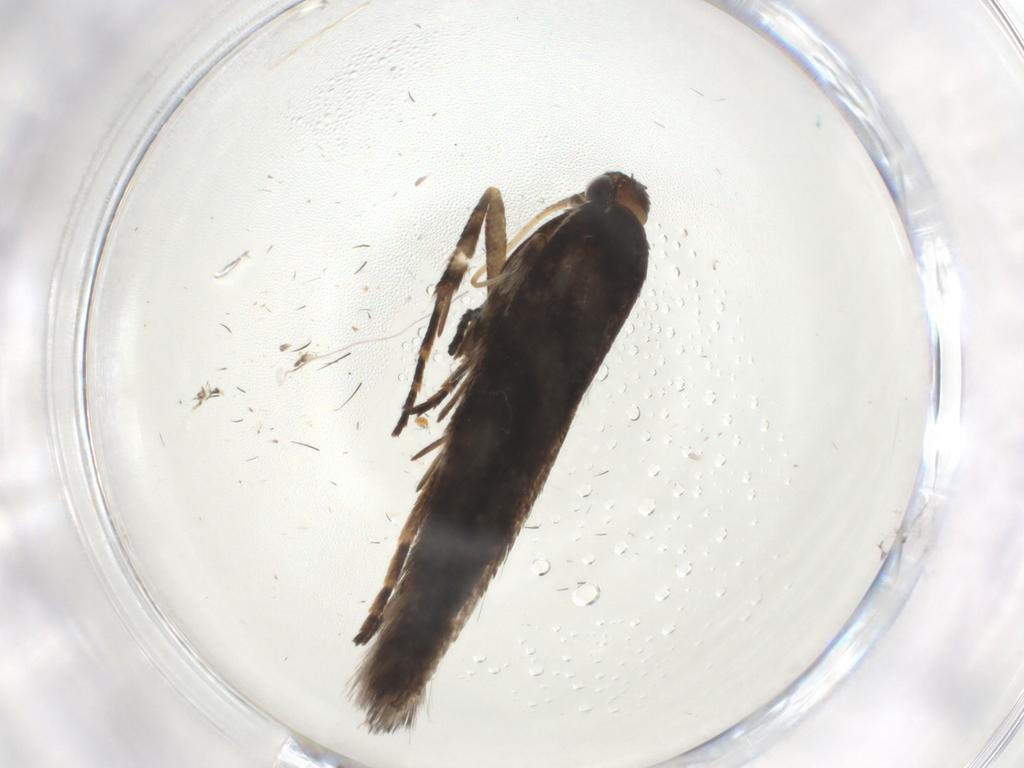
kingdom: Animalia
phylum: Arthropoda
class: Insecta
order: Lepidoptera
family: Gelechiidae
